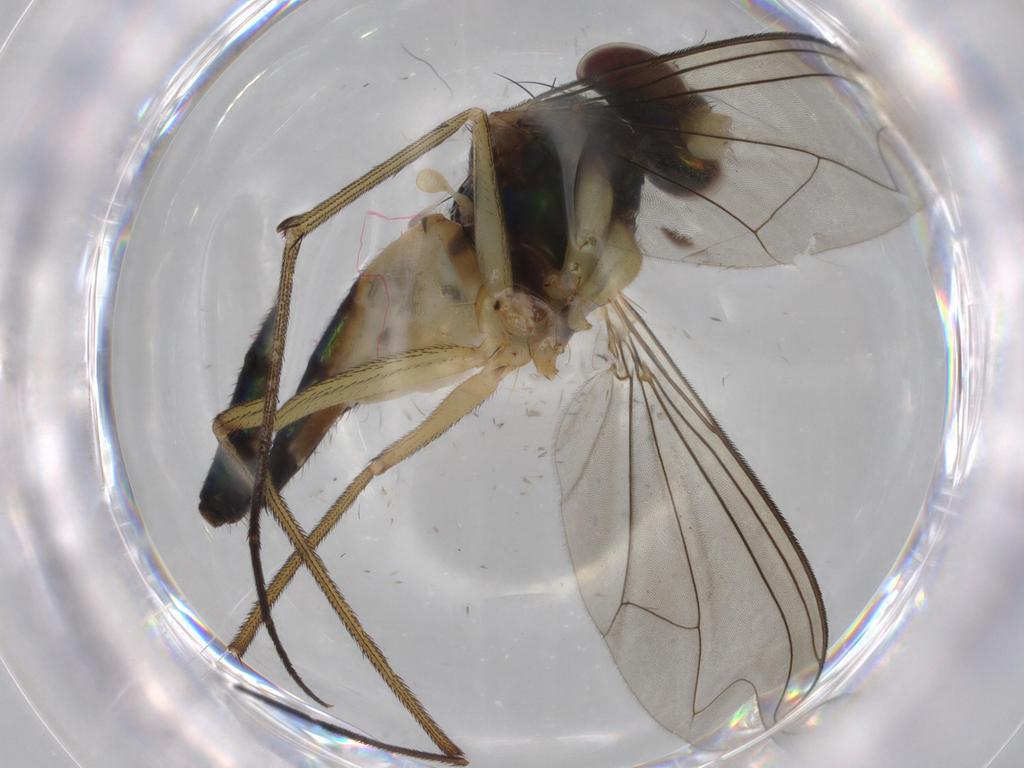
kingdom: Animalia
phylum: Arthropoda
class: Insecta
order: Diptera
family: Dolichopodidae
